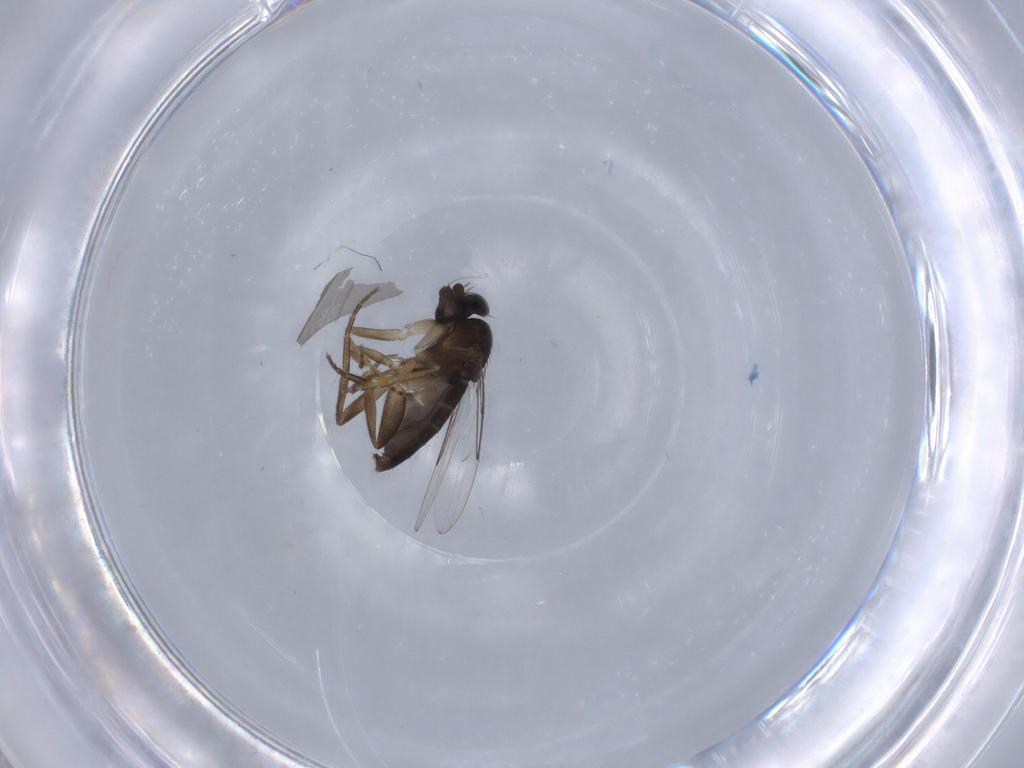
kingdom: Animalia
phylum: Arthropoda
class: Insecta
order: Diptera
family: Phoridae
